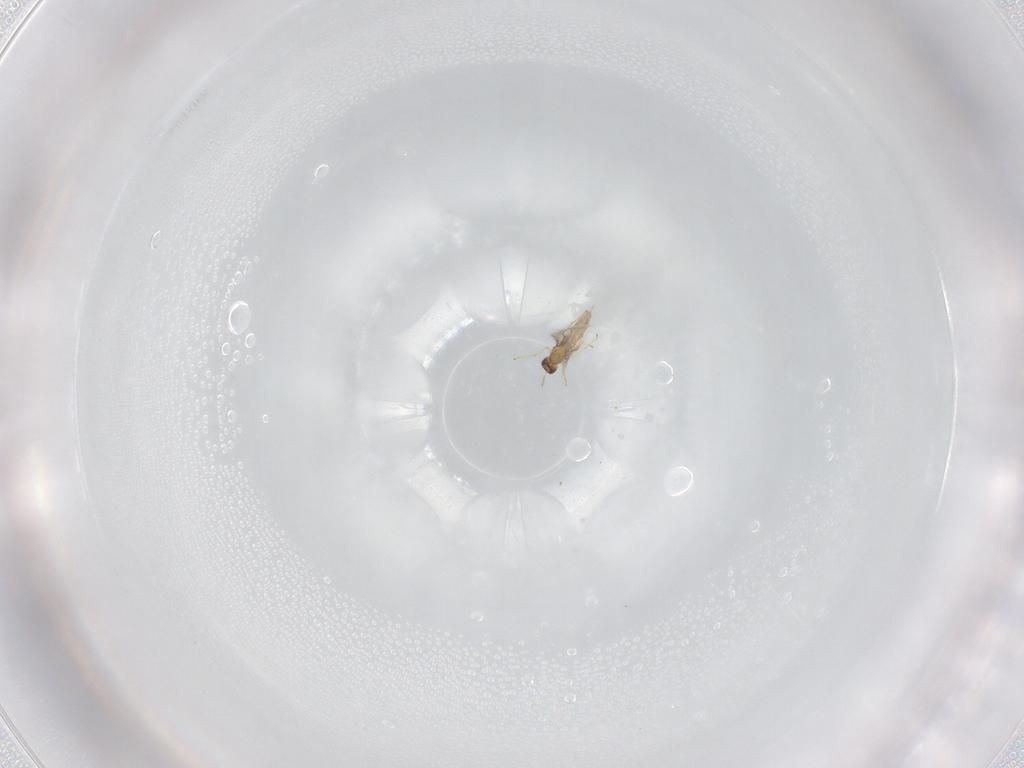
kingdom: Animalia
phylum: Arthropoda
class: Insecta
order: Hymenoptera
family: Mymaridae
